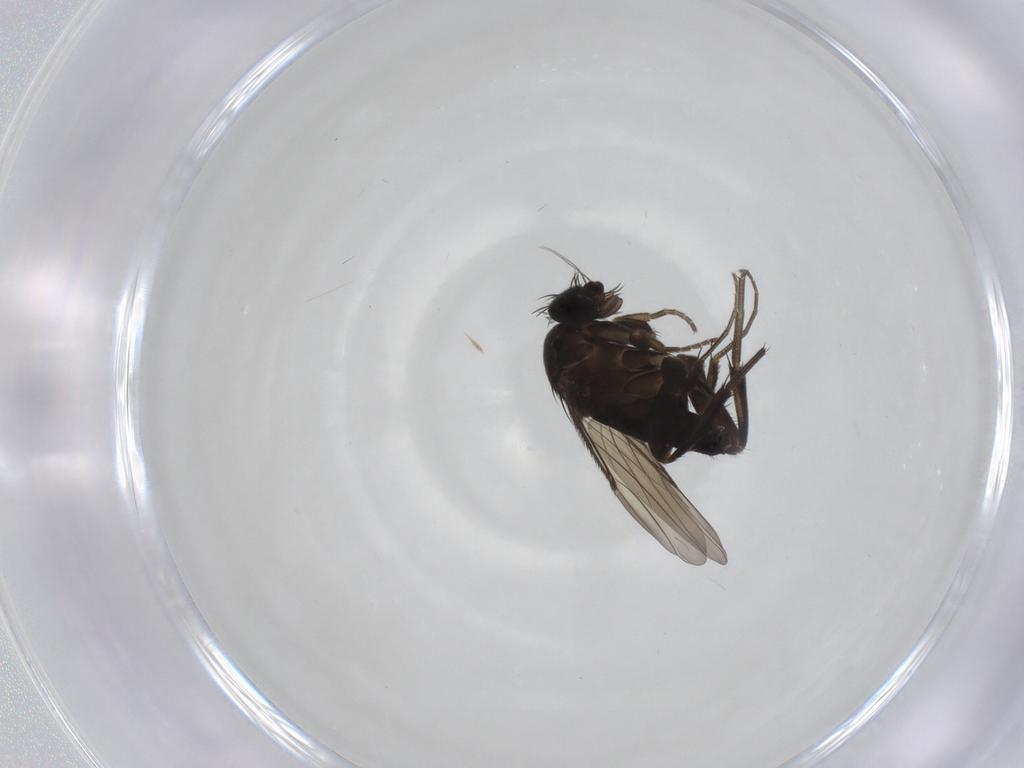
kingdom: Animalia
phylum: Arthropoda
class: Insecta
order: Diptera
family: Phoridae
